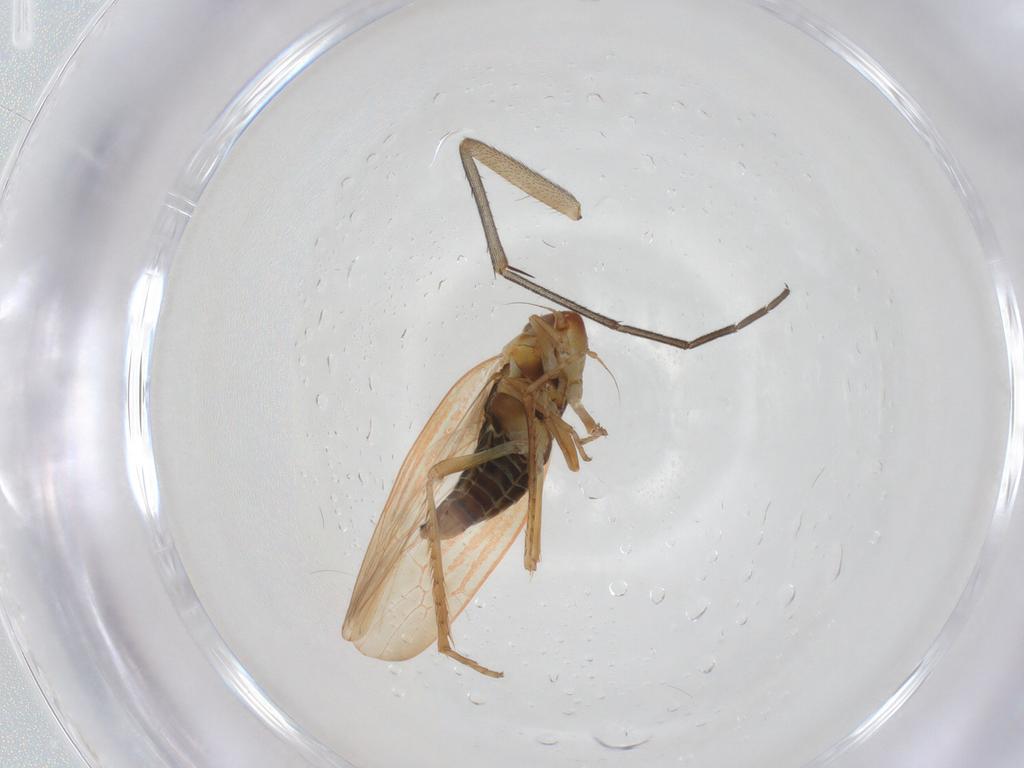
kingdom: Animalia
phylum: Arthropoda
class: Insecta
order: Hemiptera
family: Cicadellidae
